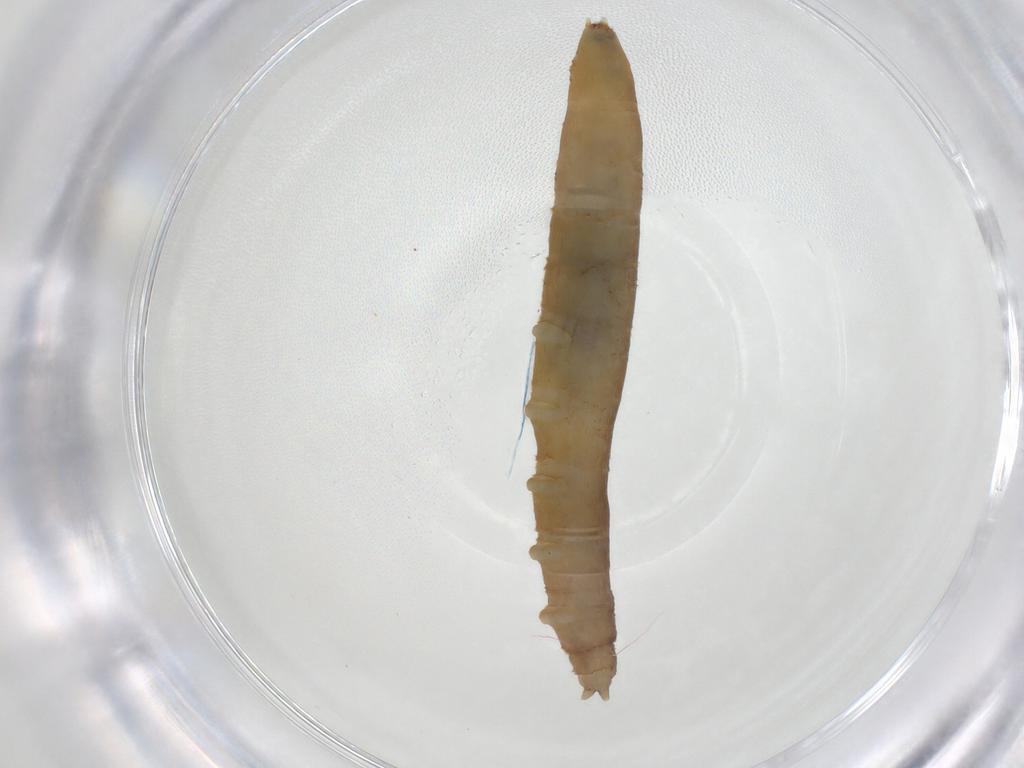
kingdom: Animalia
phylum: Arthropoda
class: Insecta
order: Diptera
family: Pediciidae
